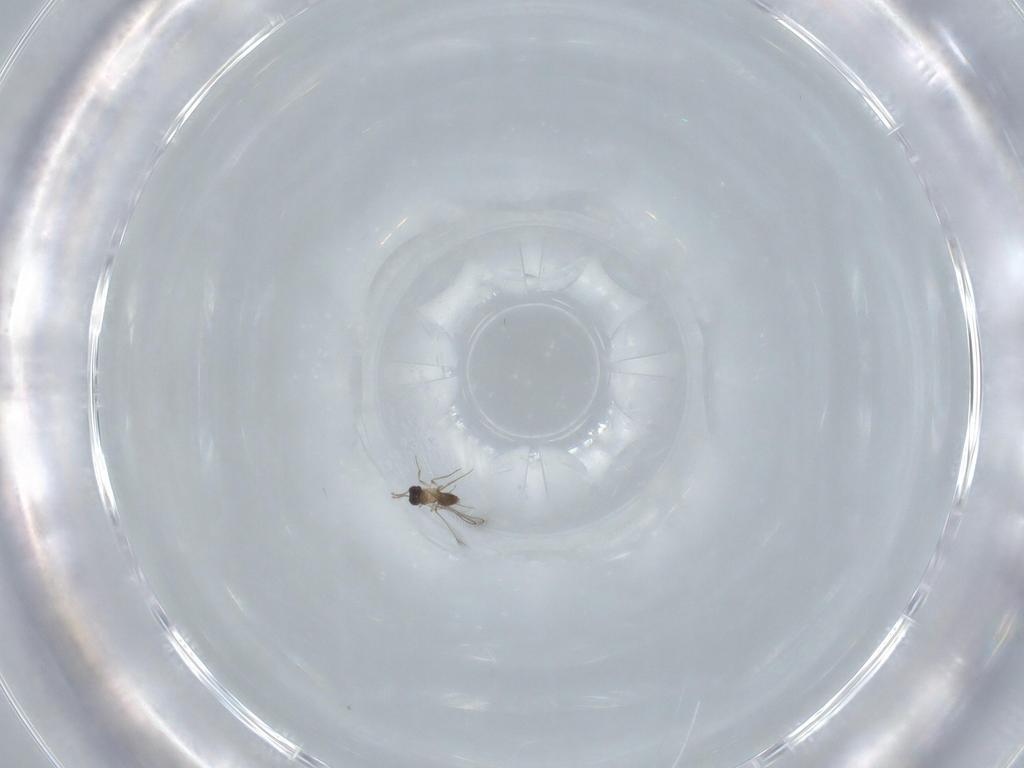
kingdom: Animalia
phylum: Arthropoda
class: Insecta
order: Hymenoptera
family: Mymaridae
